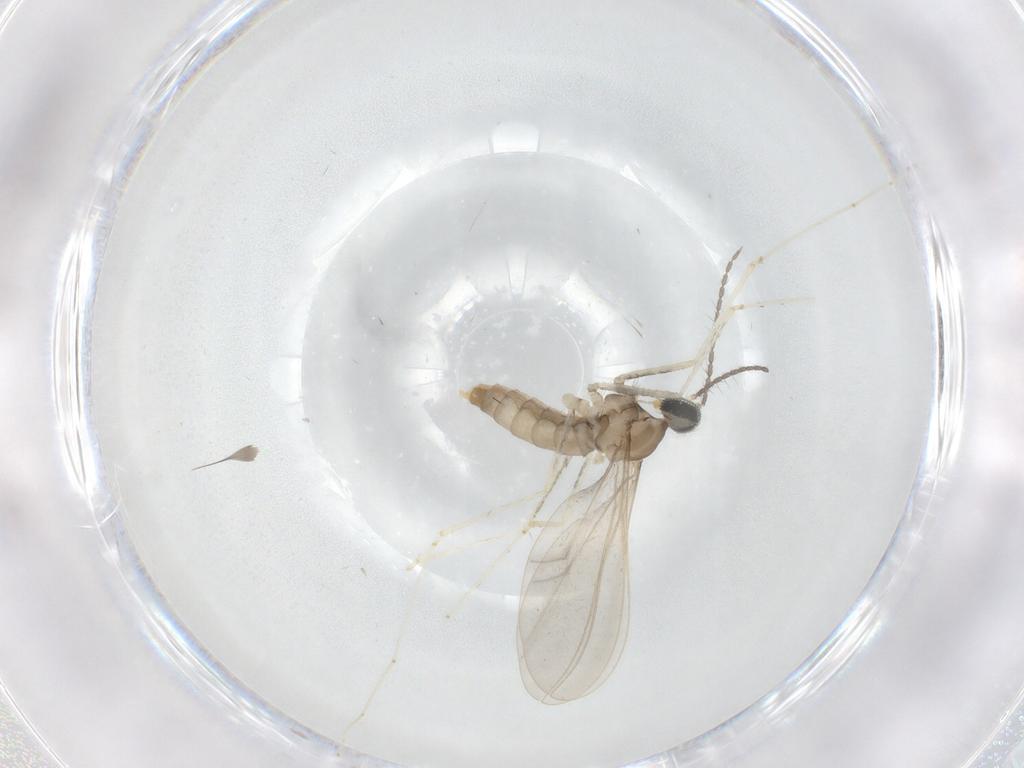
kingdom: Animalia
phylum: Arthropoda
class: Insecta
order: Diptera
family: Cecidomyiidae
